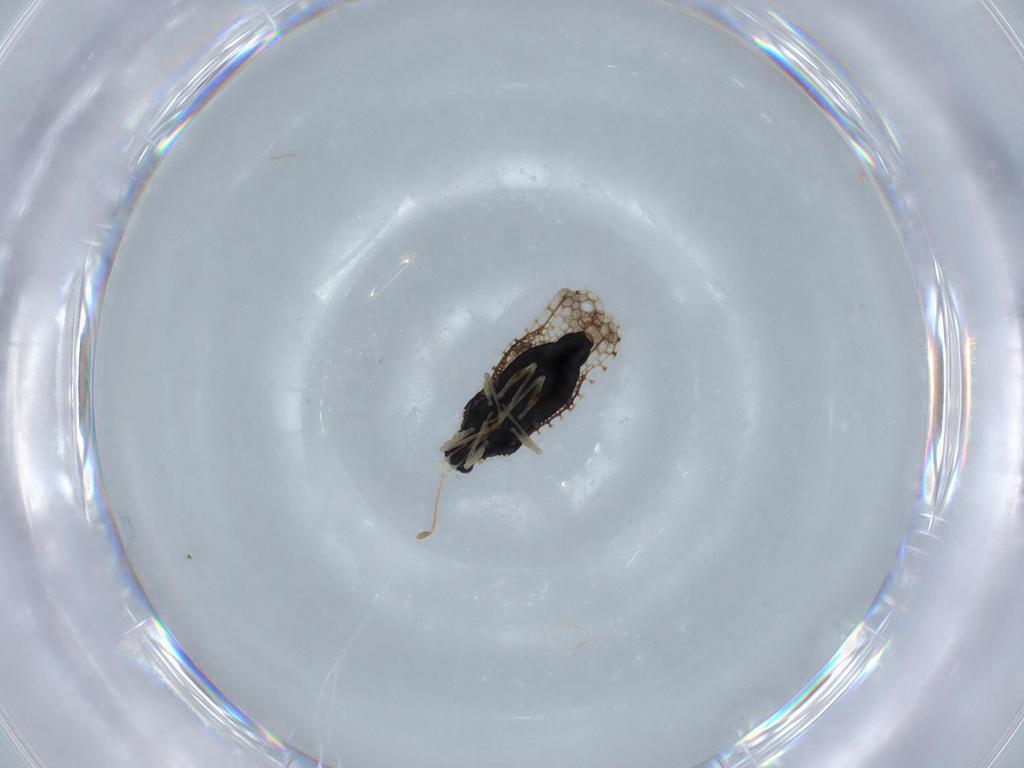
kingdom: Animalia
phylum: Arthropoda
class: Insecta
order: Hemiptera
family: Tingidae
